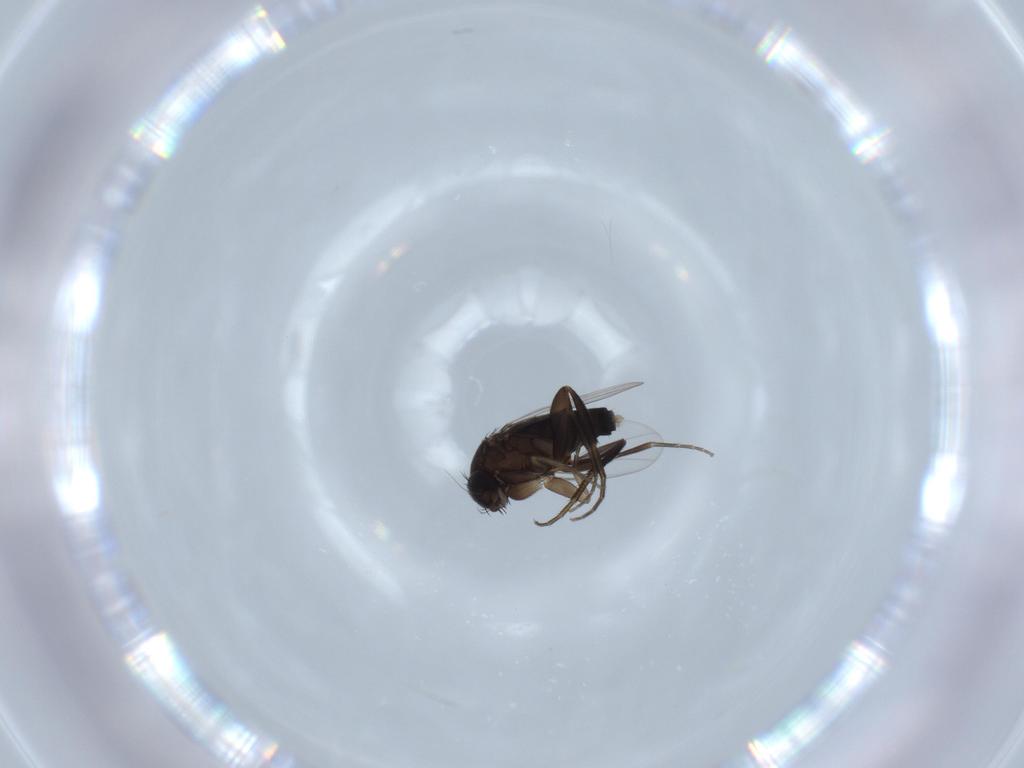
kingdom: Animalia
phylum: Arthropoda
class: Insecta
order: Diptera
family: Phoridae
